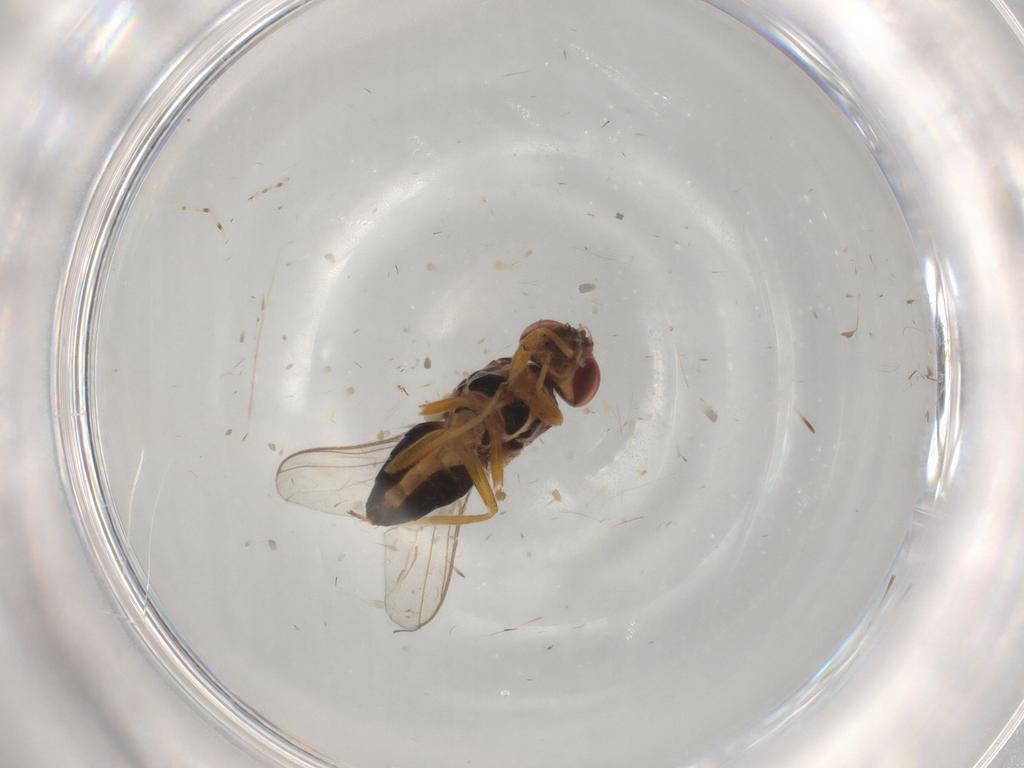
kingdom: Animalia
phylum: Arthropoda
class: Insecta
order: Diptera
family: Chloropidae
